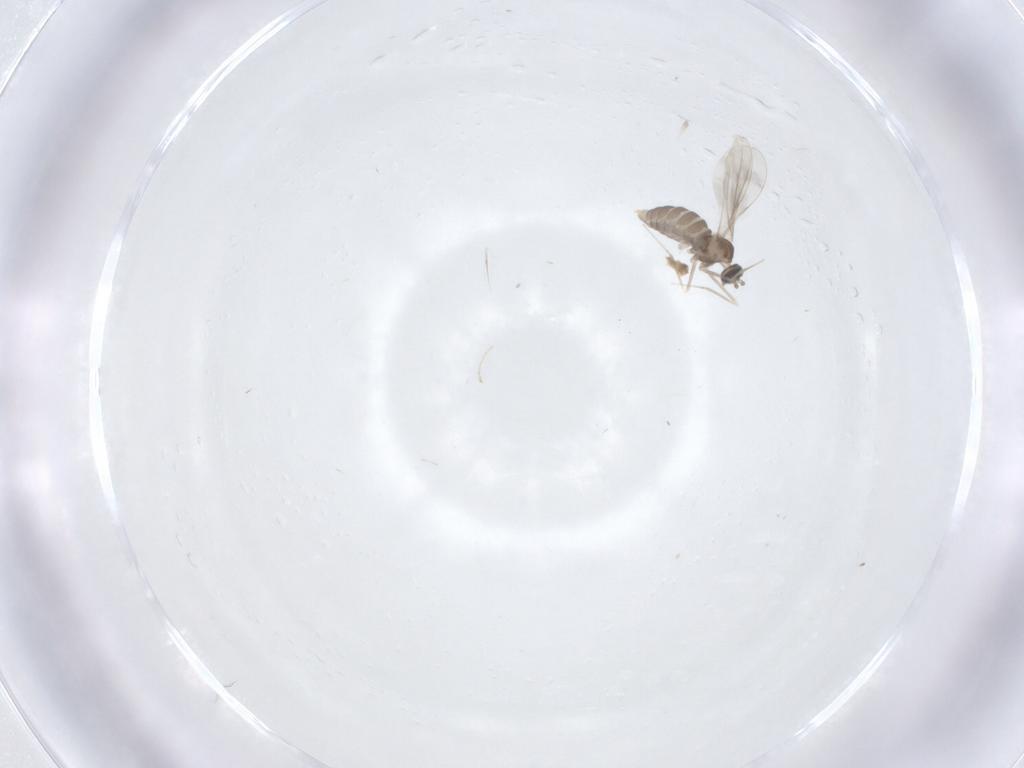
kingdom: Animalia
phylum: Arthropoda
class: Insecta
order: Diptera
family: Cecidomyiidae
